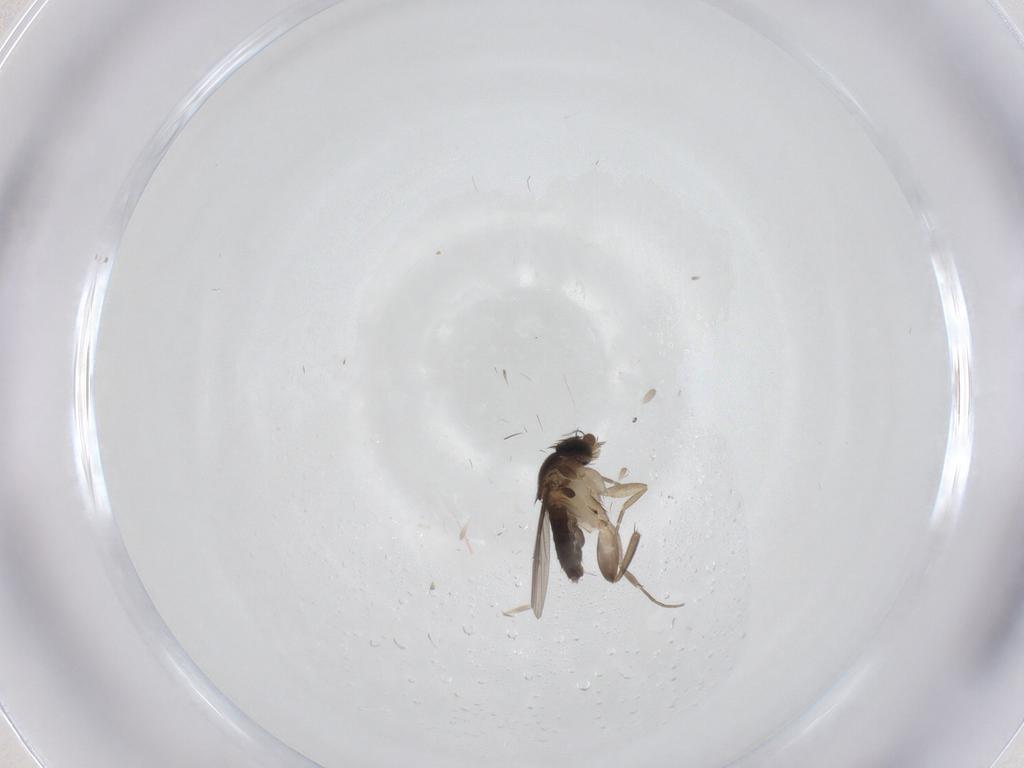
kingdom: Animalia
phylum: Arthropoda
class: Insecta
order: Diptera
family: Phoridae
